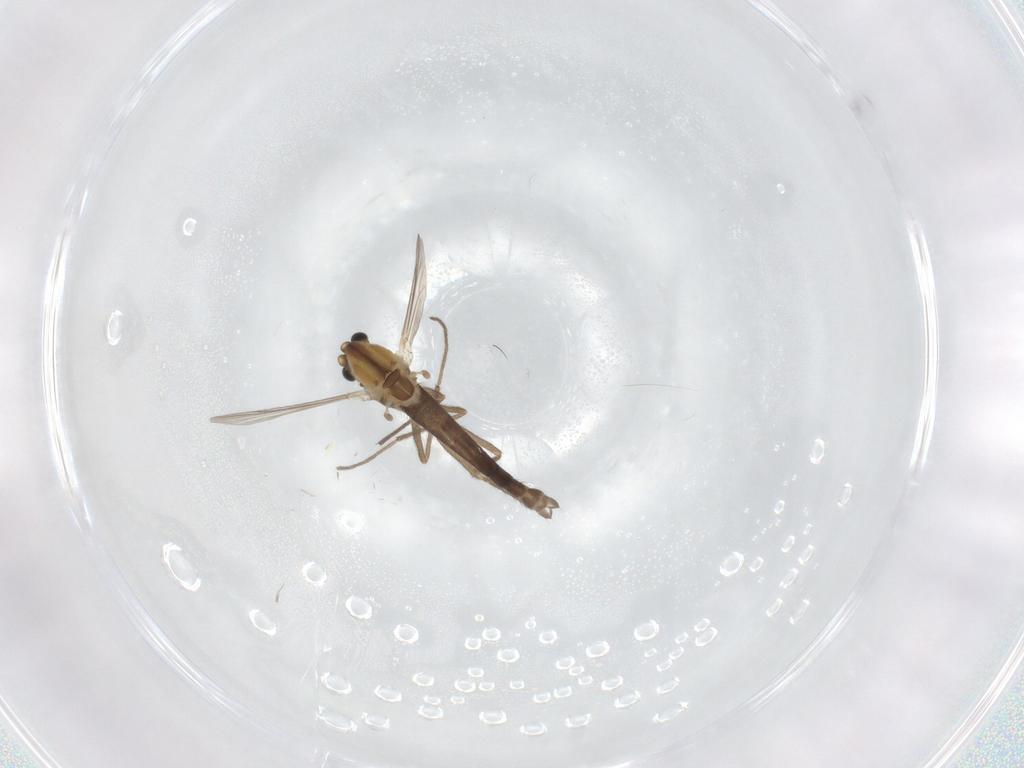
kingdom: Animalia
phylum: Arthropoda
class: Insecta
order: Diptera
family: Chironomidae
